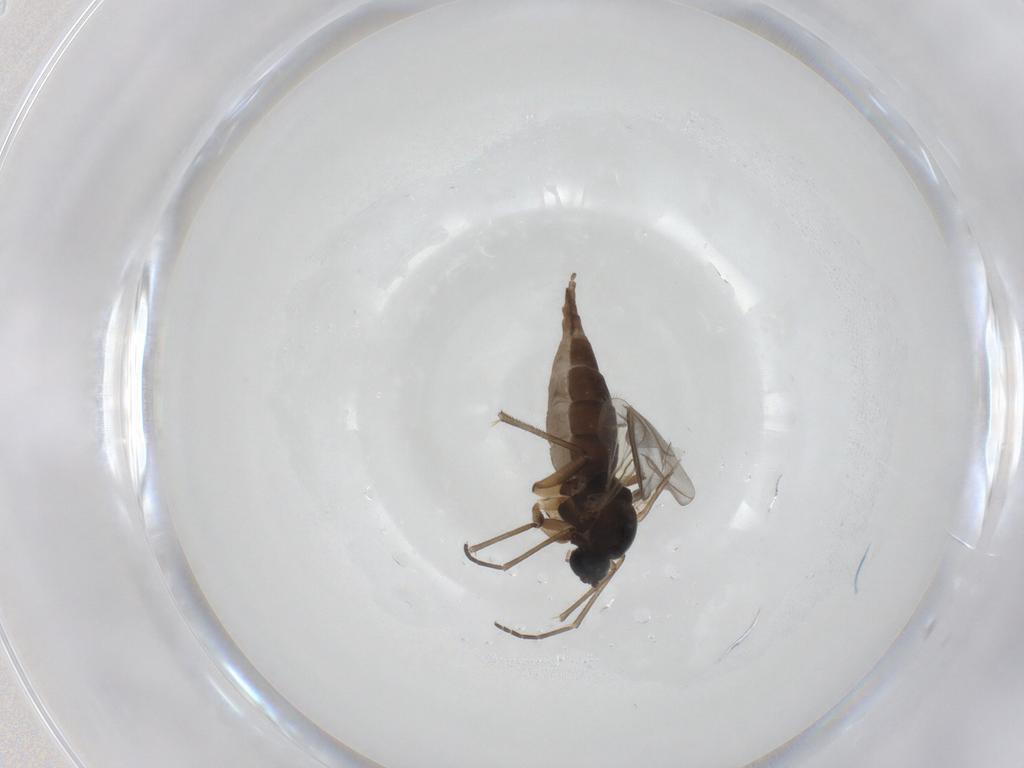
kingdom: Animalia
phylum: Arthropoda
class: Insecta
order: Diptera
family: Sciaridae
